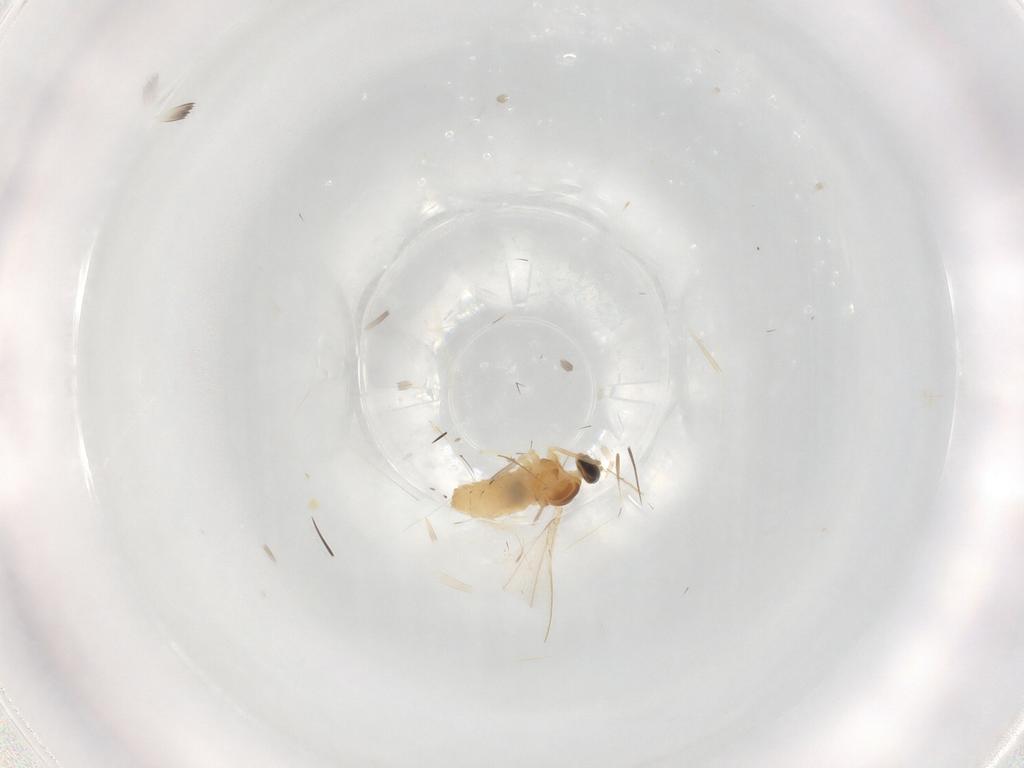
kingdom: Animalia
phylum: Arthropoda
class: Insecta
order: Diptera
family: Cecidomyiidae
